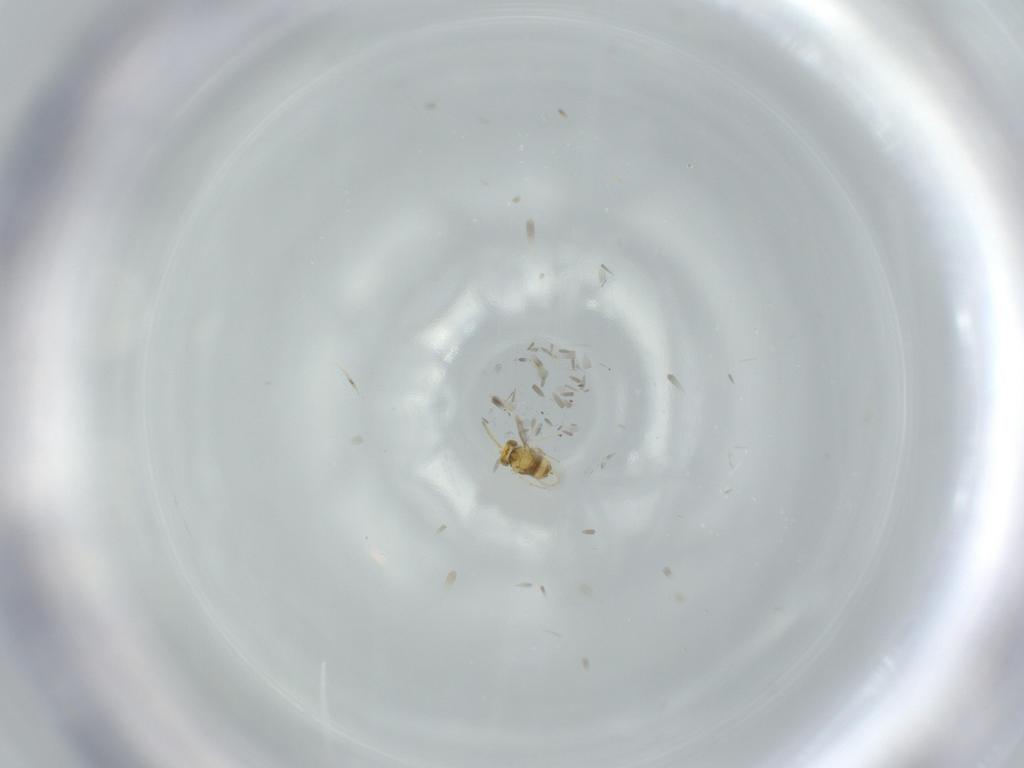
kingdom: Animalia
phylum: Arthropoda
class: Insecta
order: Hymenoptera
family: Aphelinidae
